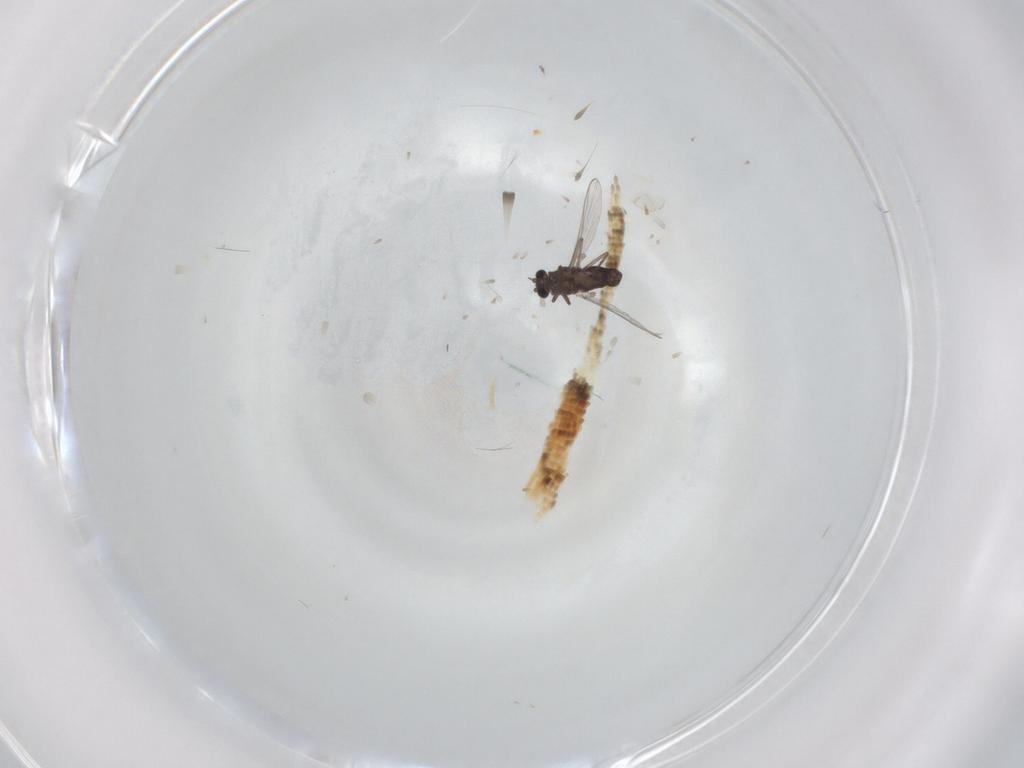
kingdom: Animalia
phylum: Arthropoda
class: Insecta
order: Diptera
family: Chironomidae
